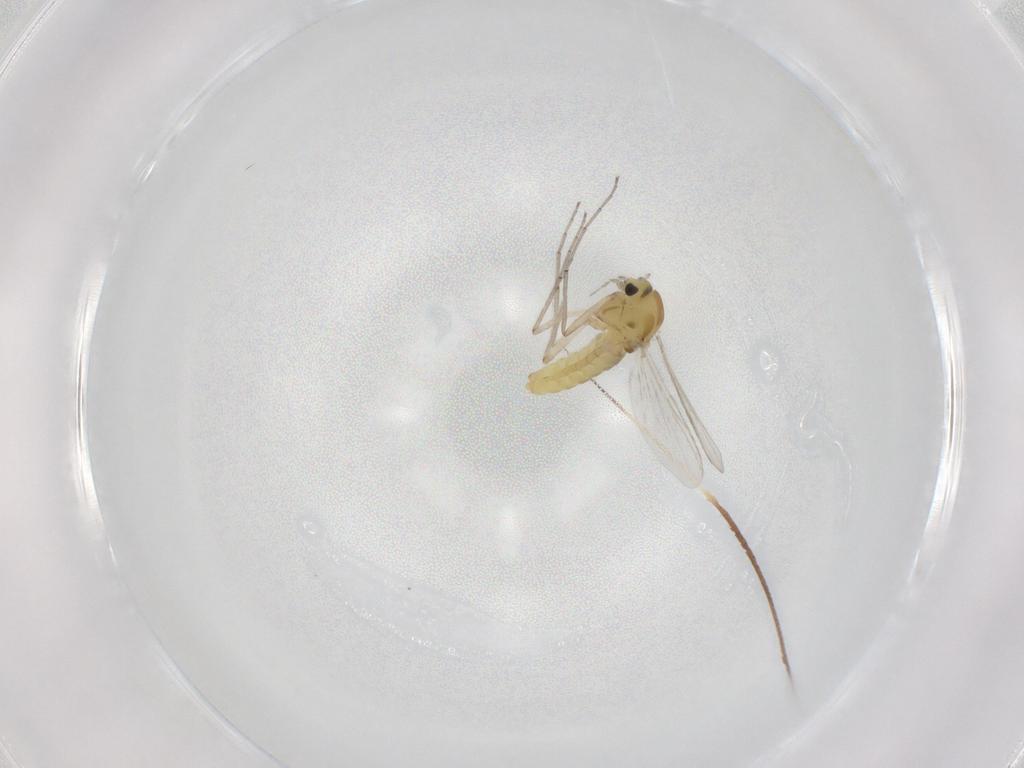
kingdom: Animalia
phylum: Arthropoda
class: Insecta
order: Diptera
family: Chironomidae
